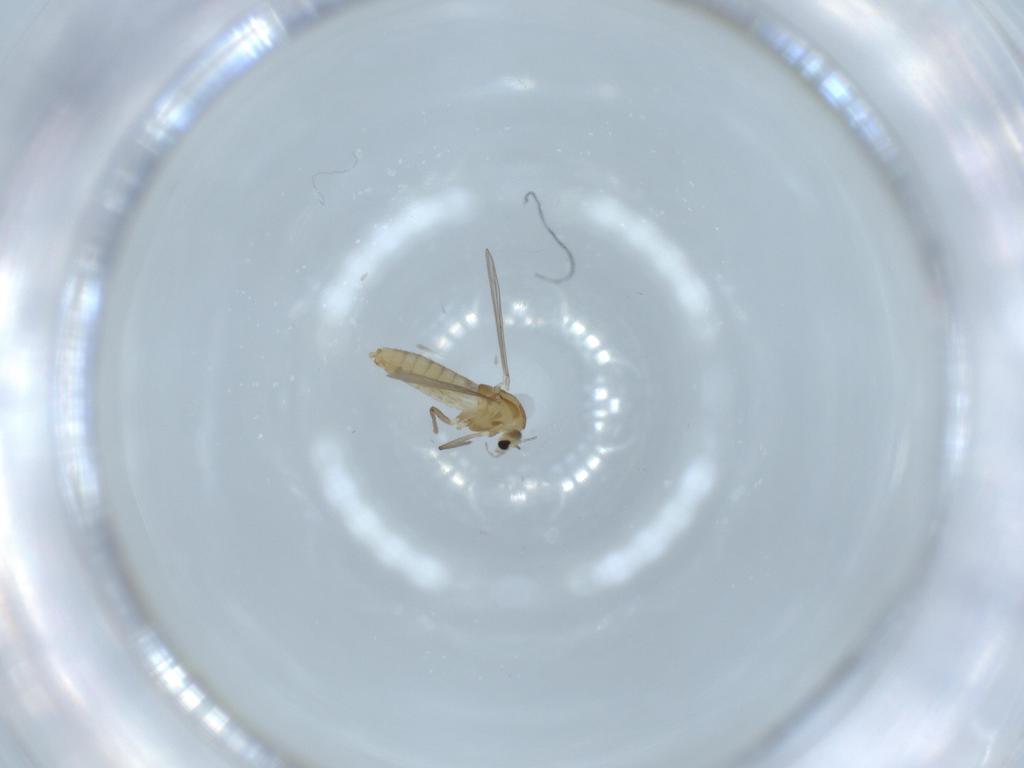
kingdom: Animalia
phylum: Arthropoda
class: Insecta
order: Diptera
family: Chironomidae
